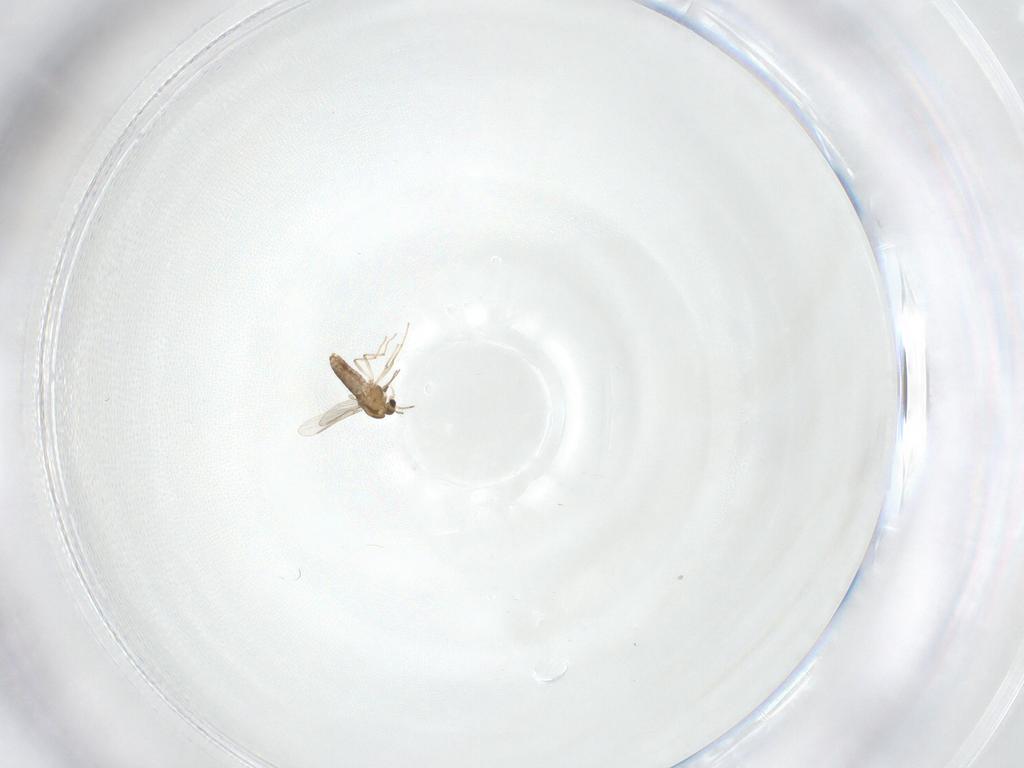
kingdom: Animalia
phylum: Arthropoda
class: Insecta
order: Diptera
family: Chironomidae
